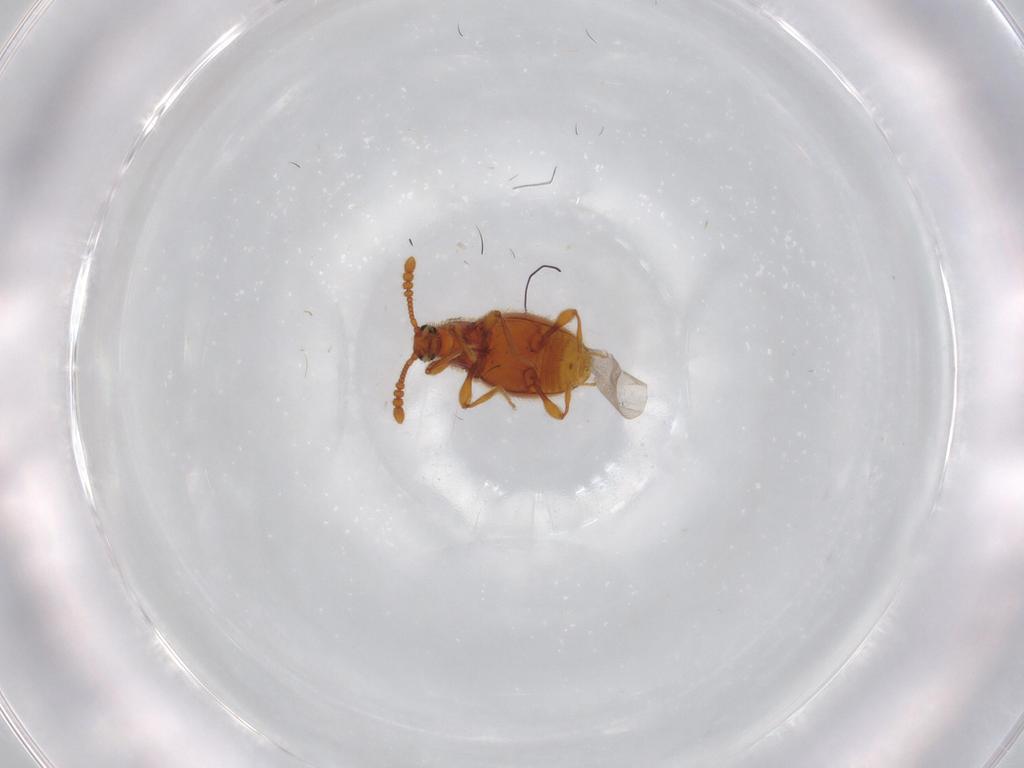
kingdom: Animalia
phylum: Arthropoda
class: Insecta
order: Coleoptera
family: Staphylinidae
